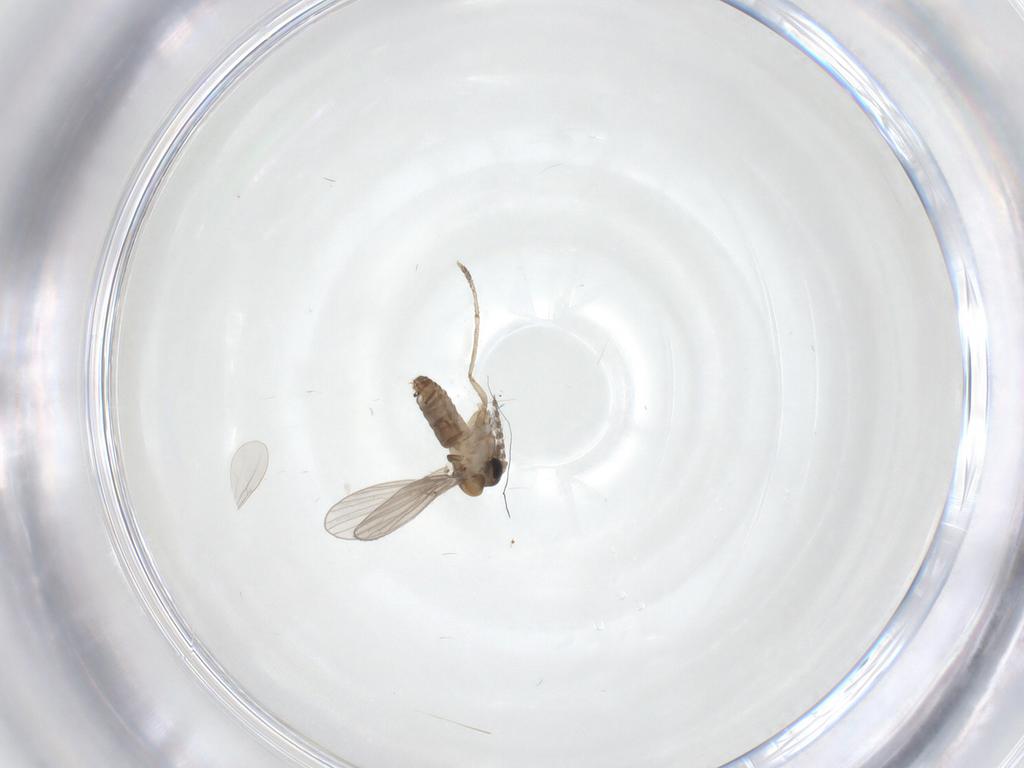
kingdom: Animalia
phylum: Arthropoda
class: Insecta
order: Diptera
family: Cecidomyiidae
